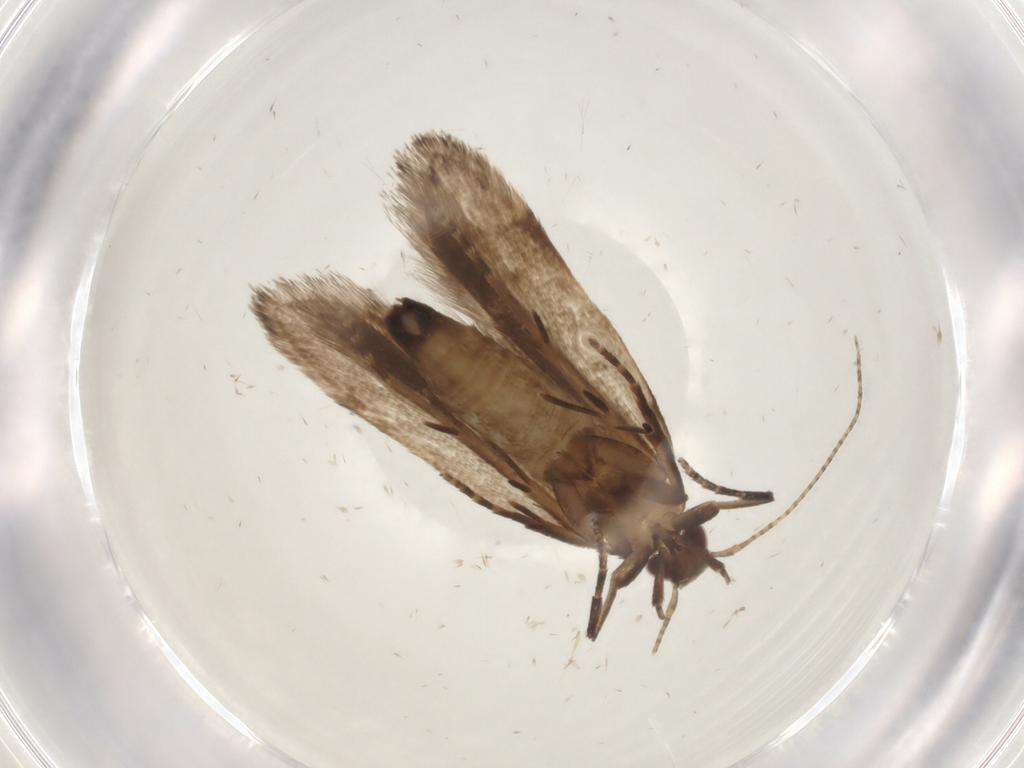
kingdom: Animalia
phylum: Arthropoda
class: Insecta
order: Lepidoptera
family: Gelechiidae
